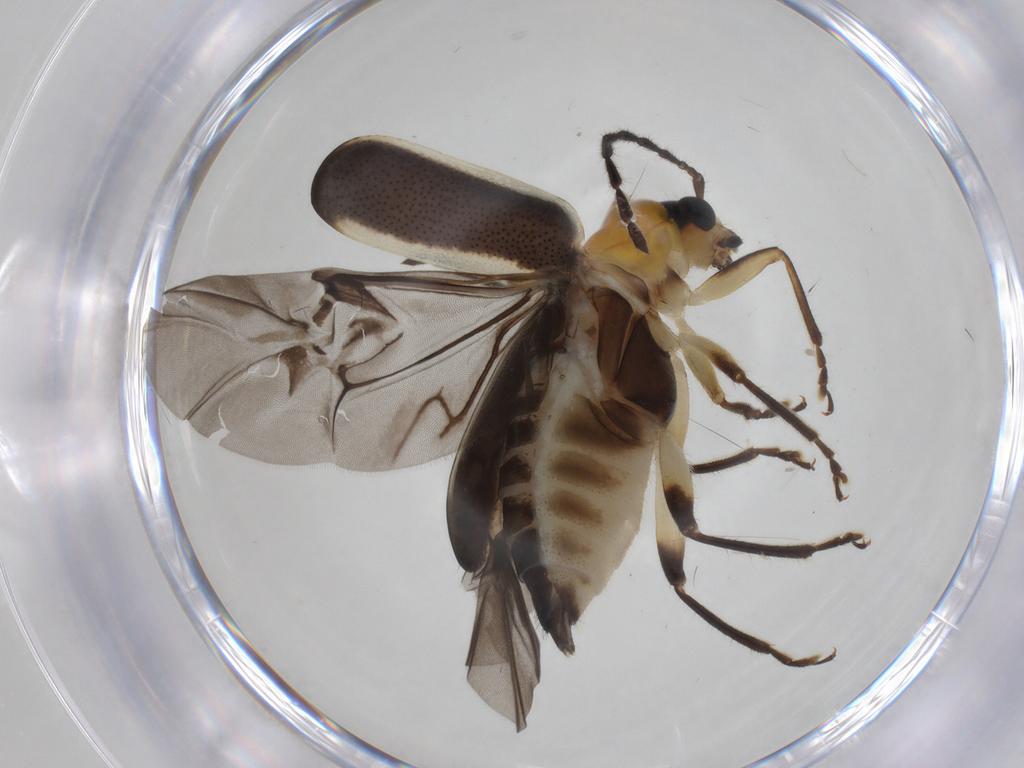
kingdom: Animalia
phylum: Arthropoda
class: Insecta
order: Coleoptera
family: Chrysomelidae
